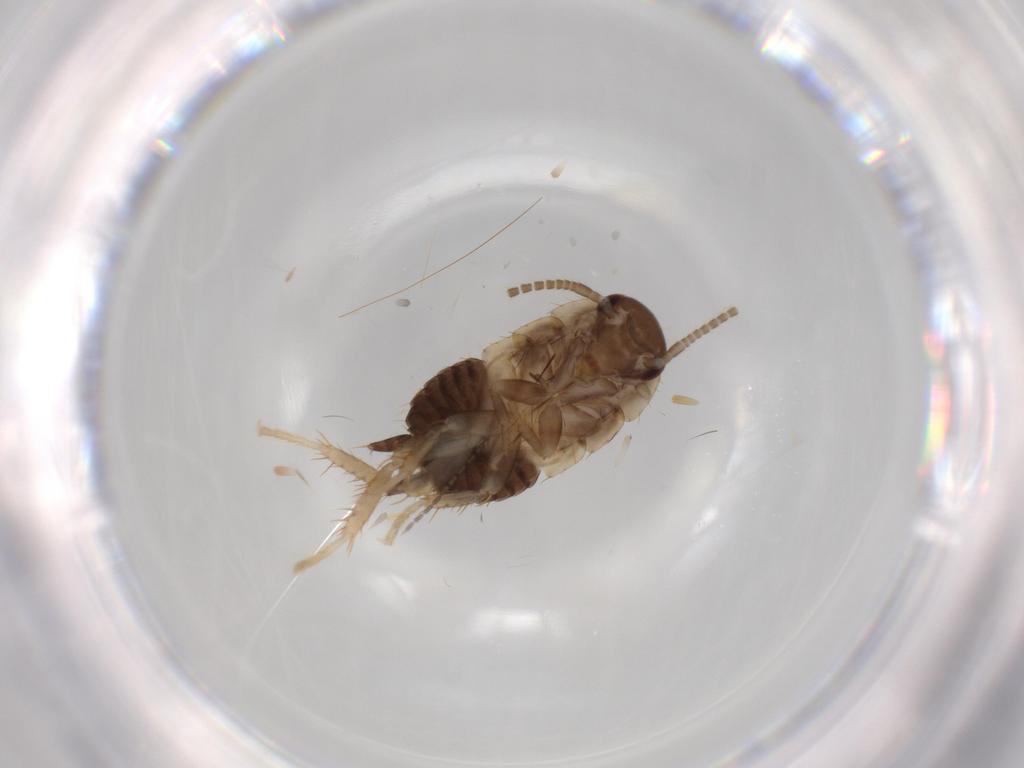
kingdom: Animalia
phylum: Arthropoda
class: Insecta
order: Blattodea
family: Ectobiidae
